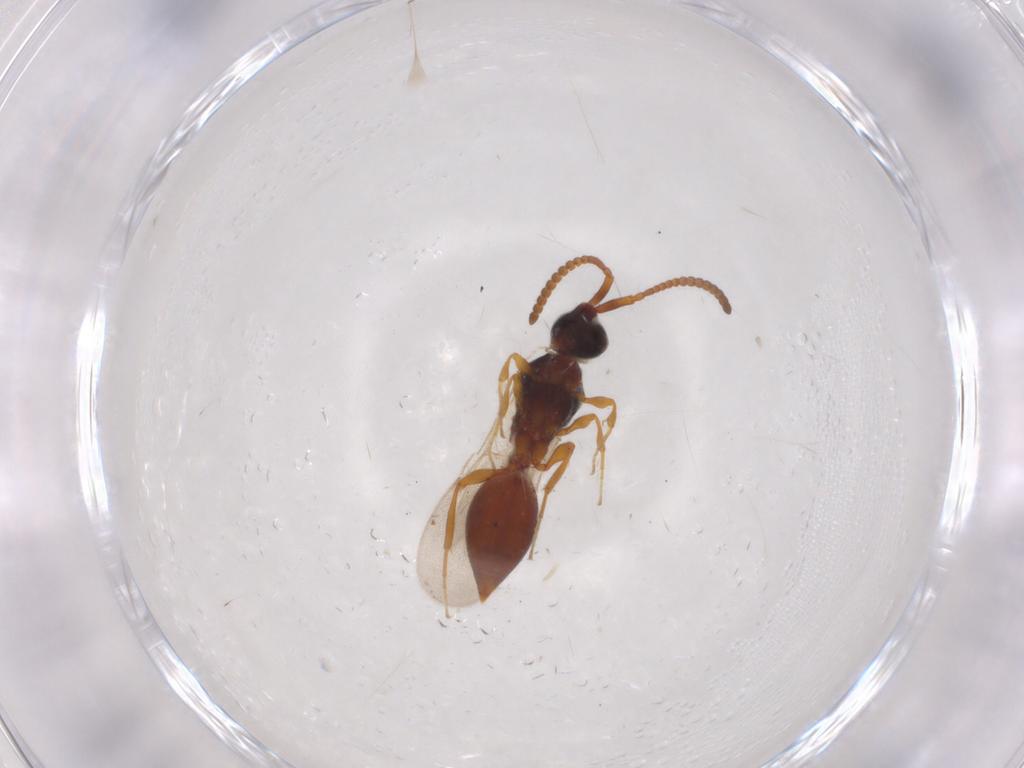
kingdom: Animalia
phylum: Arthropoda
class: Insecta
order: Hymenoptera
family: Diapriidae
